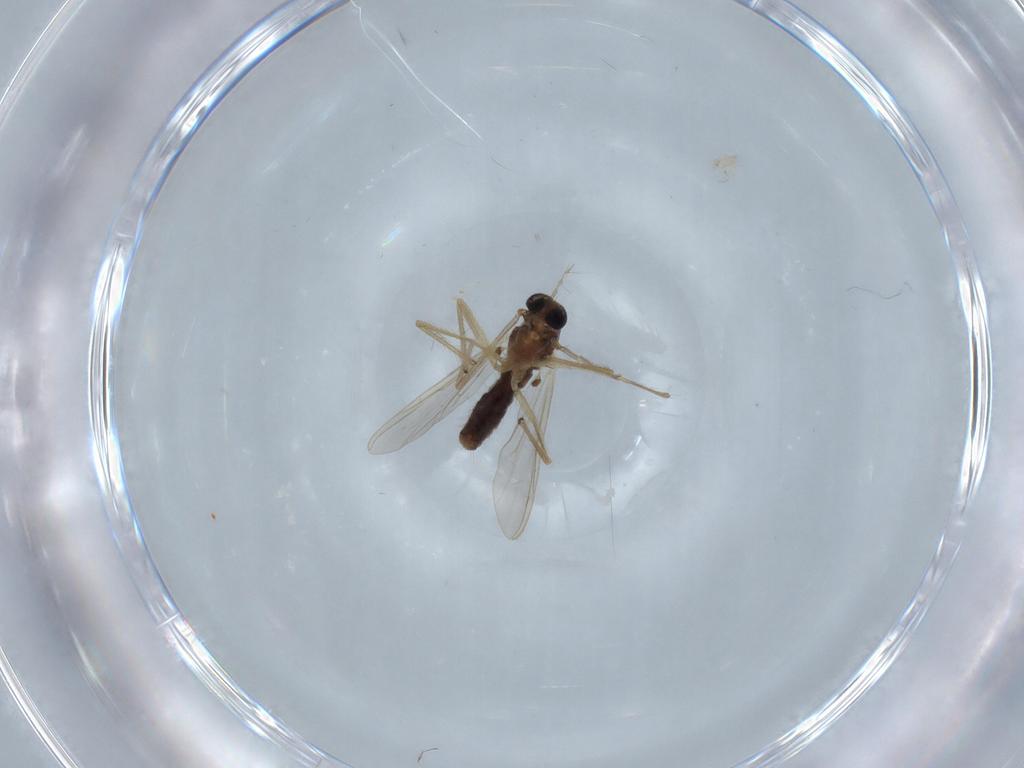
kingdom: Animalia
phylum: Arthropoda
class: Insecta
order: Diptera
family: Chironomidae
